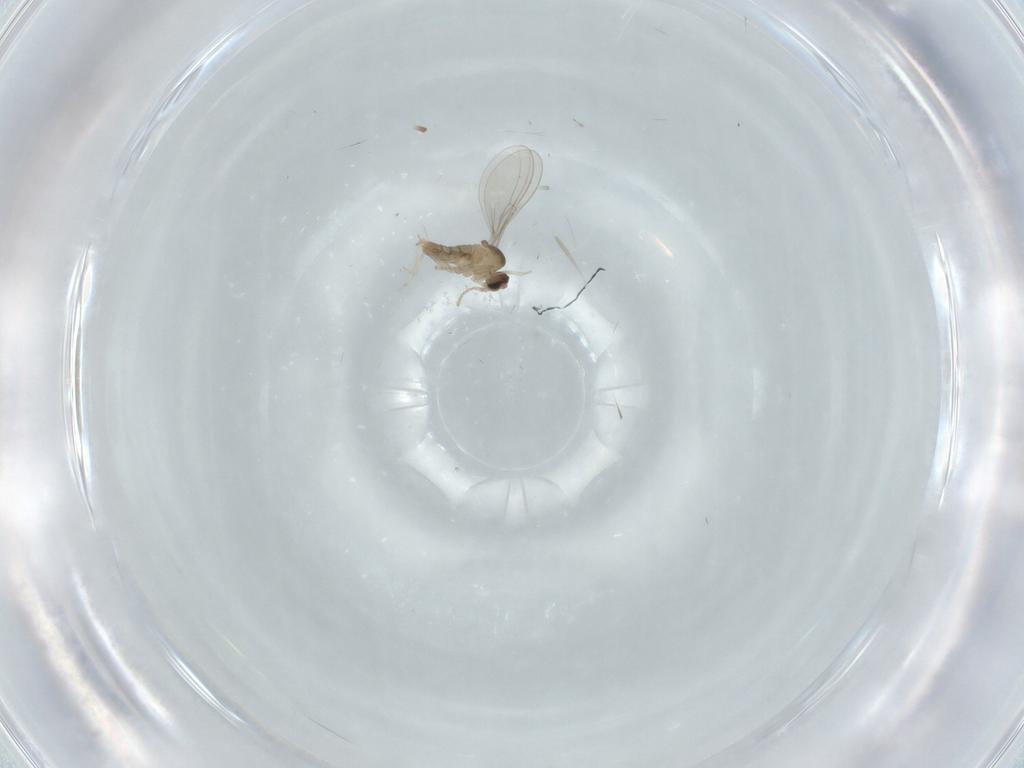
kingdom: Animalia
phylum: Arthropoda
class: Insecta
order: Diptera
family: Cecidomyiidae
